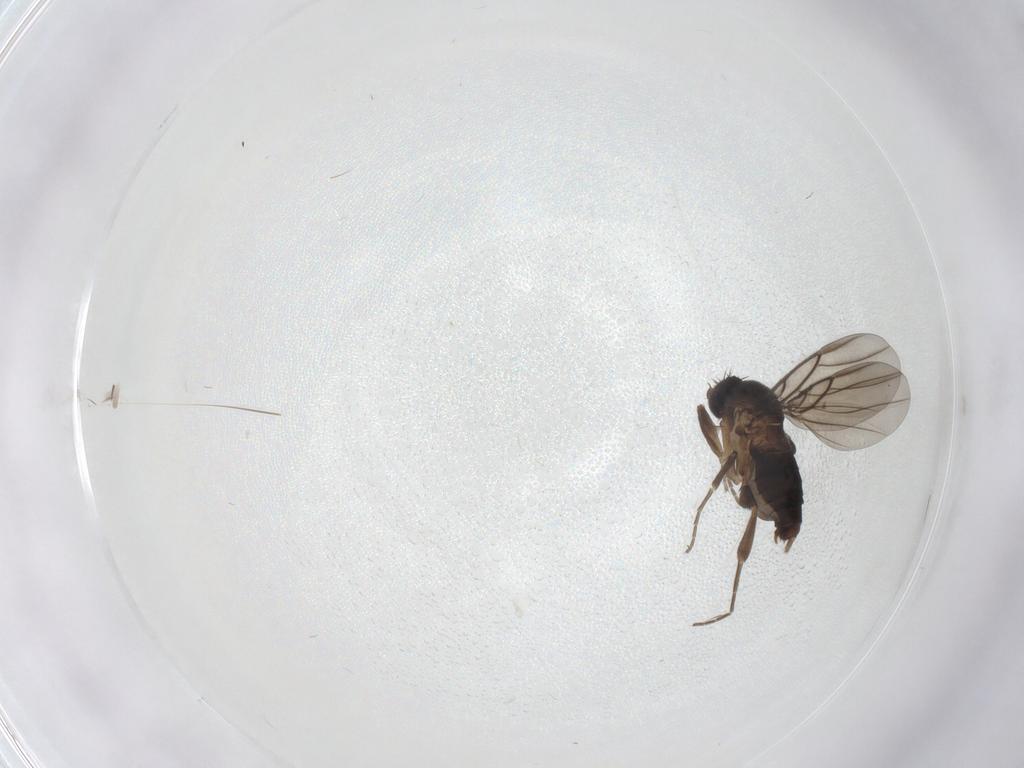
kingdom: Animalia
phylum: Arthropoda
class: Insecta
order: Diptera
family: Phoridae
